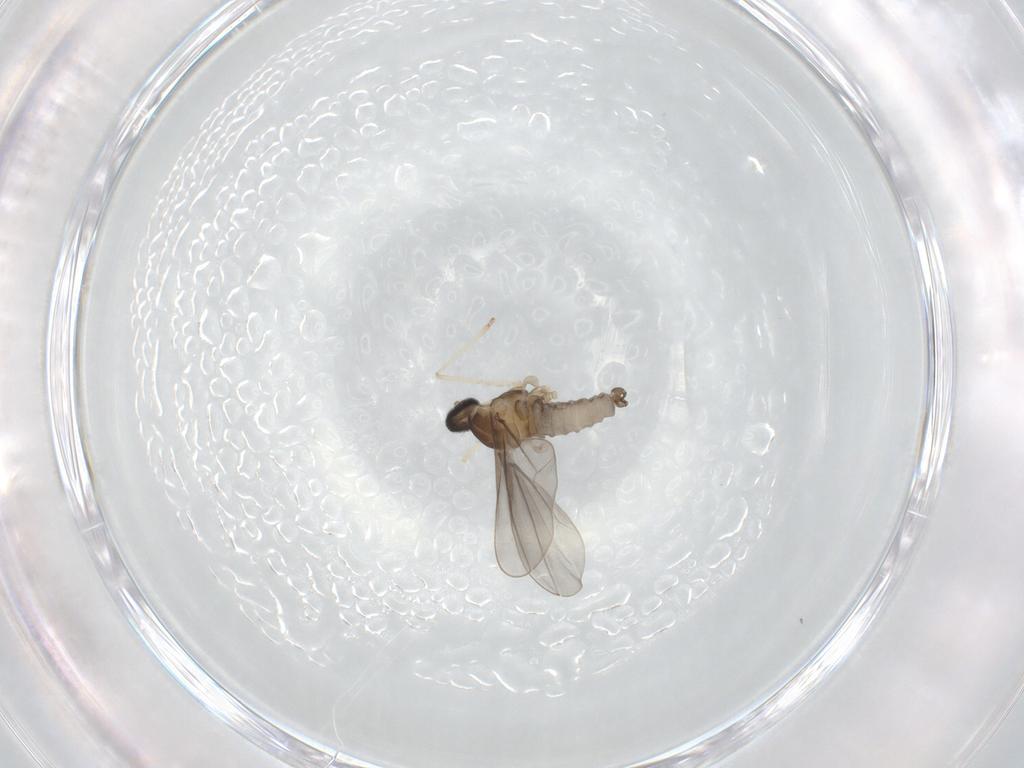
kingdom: Animalia
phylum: Arthropoda
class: Insecta
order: Diptera
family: Cecidomyiidae
